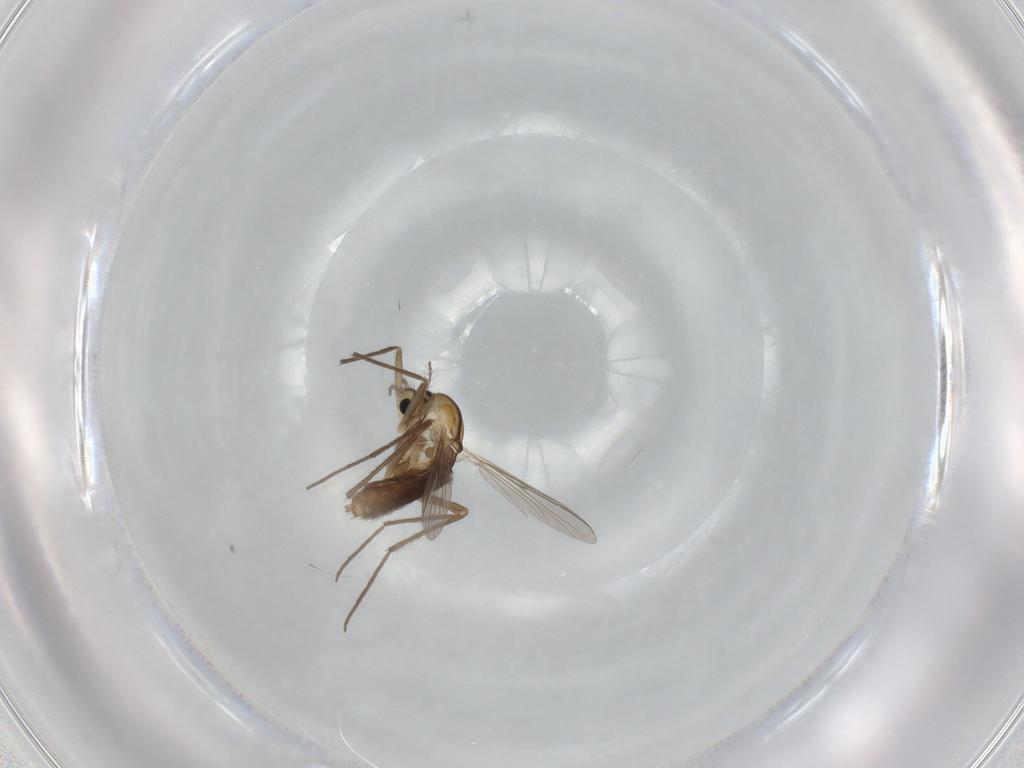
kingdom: Animalia
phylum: Arthropoda
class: Insecta
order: Diptera
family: Chironomidae
